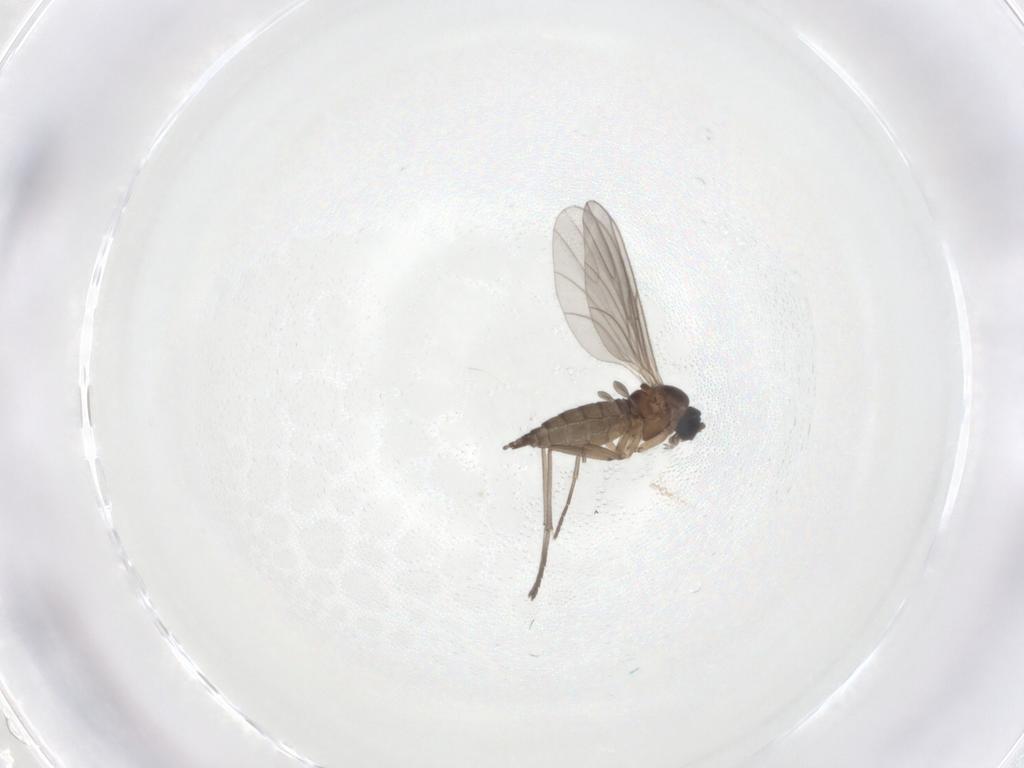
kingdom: Animalia
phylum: Arthropoda
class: Insecta
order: Diptera
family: Sciaridae
